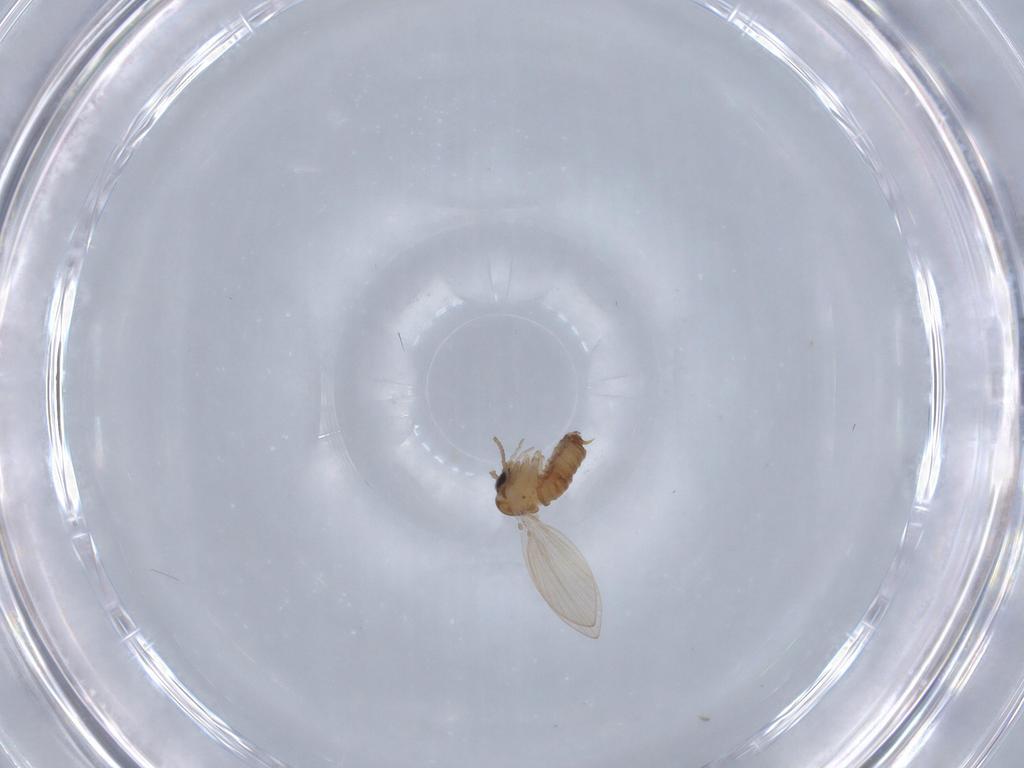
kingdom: Animalia
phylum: Arthropoda
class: Insecta
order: Diptera
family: Psychodidae
